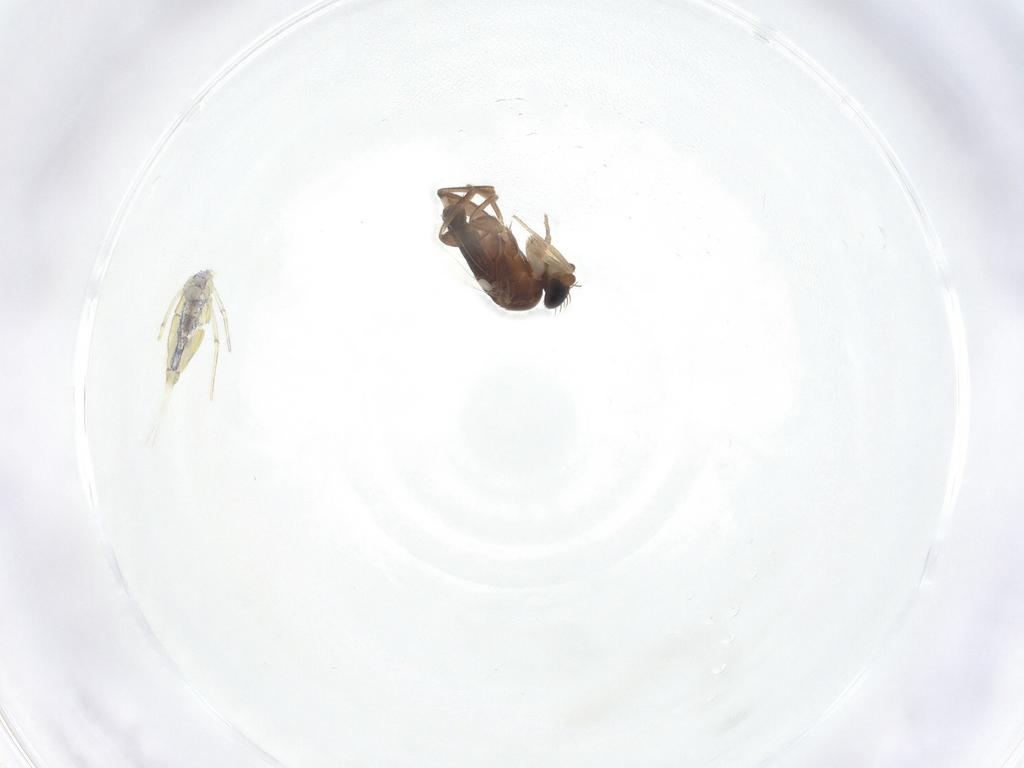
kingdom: Animalia
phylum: Arthropoda
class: Insecta
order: Diptera
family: Phoridae
